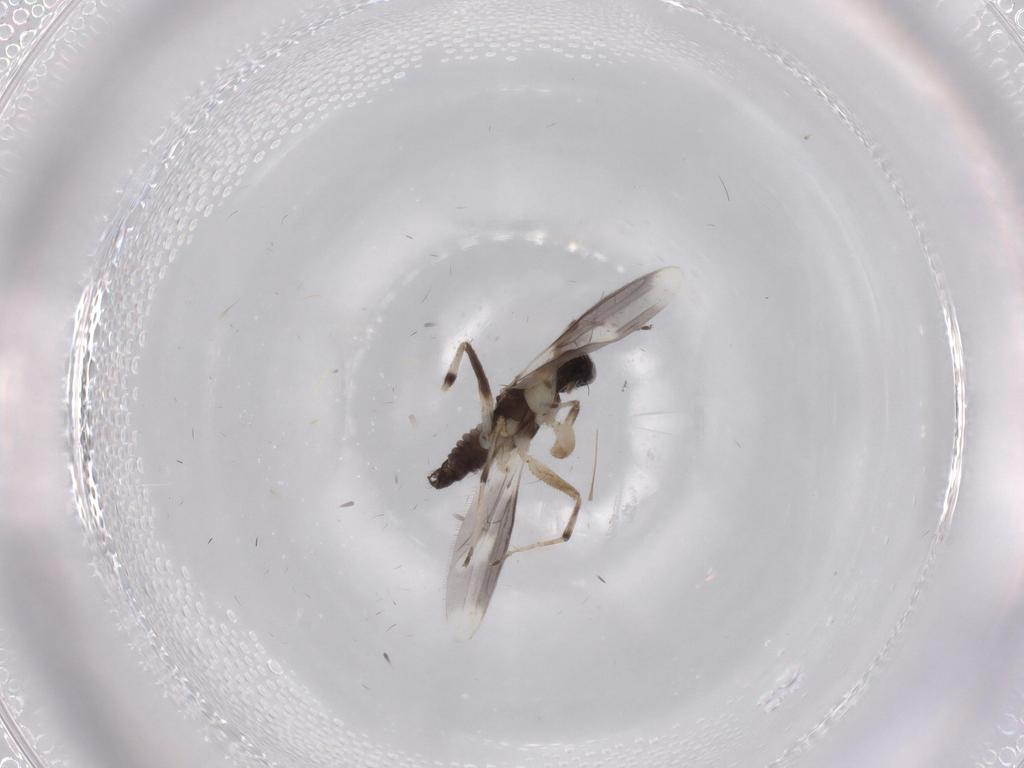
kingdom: Animalia
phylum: Arthropoda
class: Insecta
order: Diptera
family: Hybotidae
